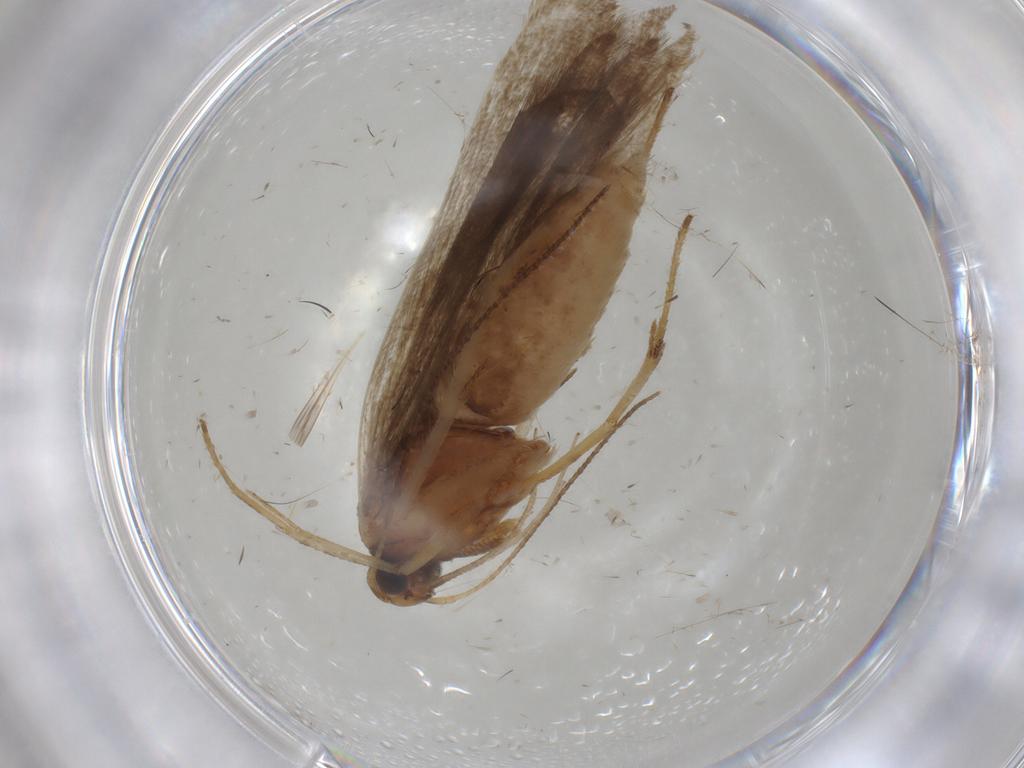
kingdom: Animalia
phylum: Arthropoda
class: Insecta
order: Lepidoptera
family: Gelechiidae
